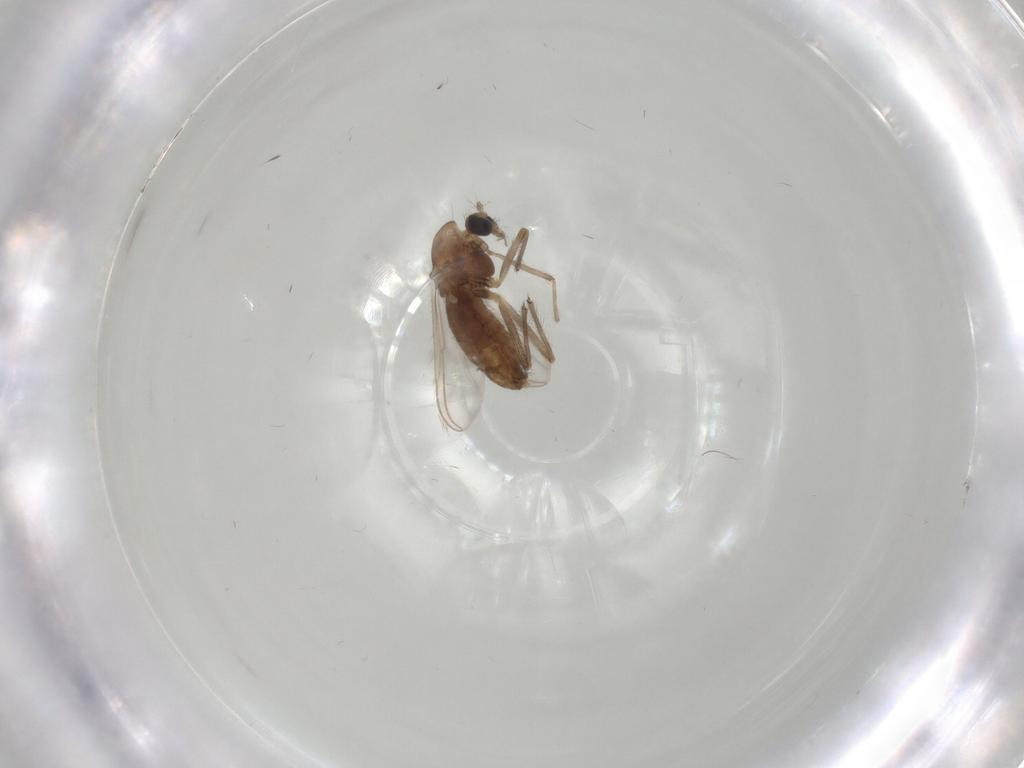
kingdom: Animalia
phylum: Arthropoda
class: Insecta
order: Diptera
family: Chironomidae
